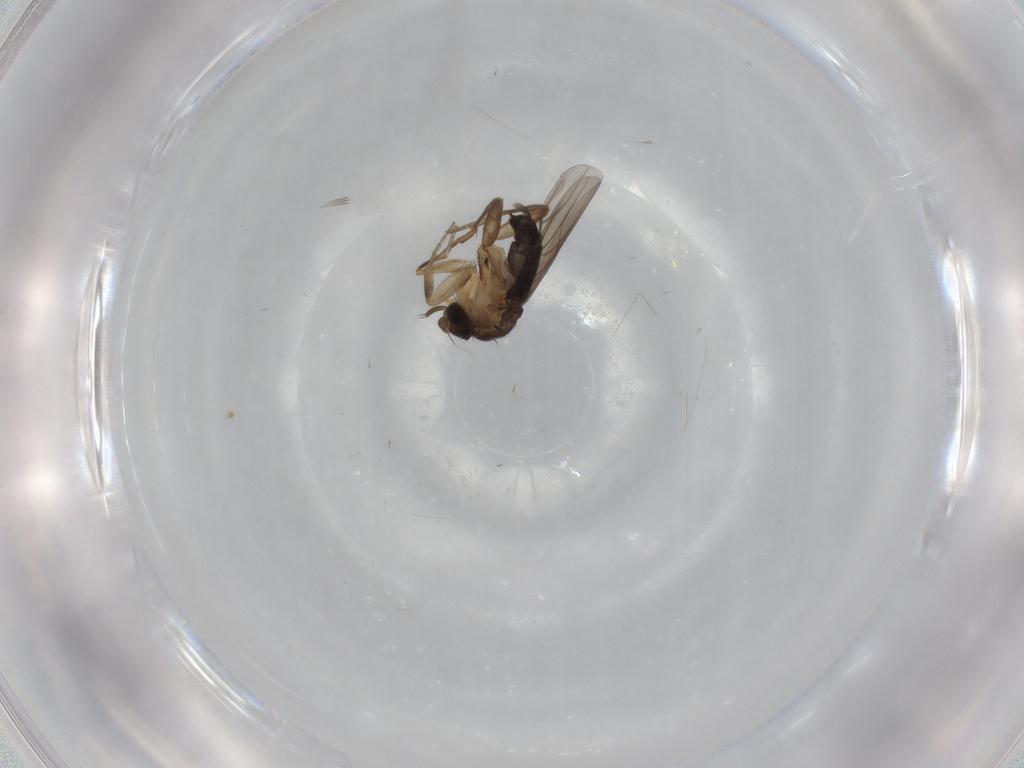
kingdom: Animalia
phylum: Arthropoda
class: Insecta
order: Diptera
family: Phoridae
